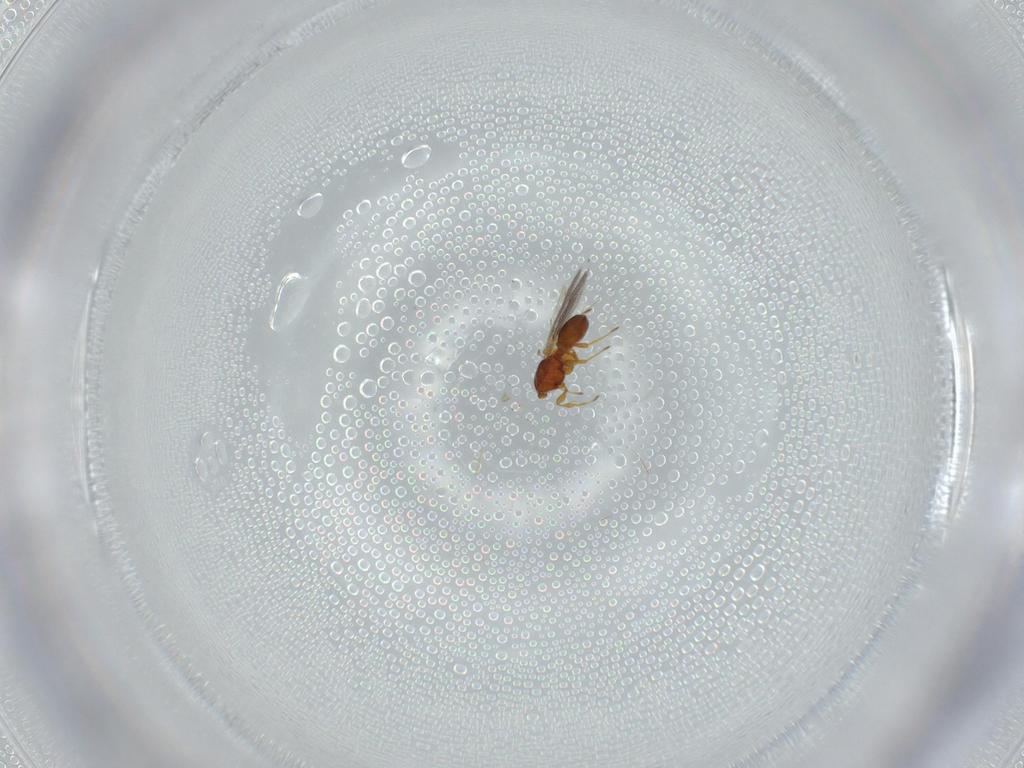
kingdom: Animalia
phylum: Arthropoda
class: Insecta
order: Hymenoptera
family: Diapriidae
